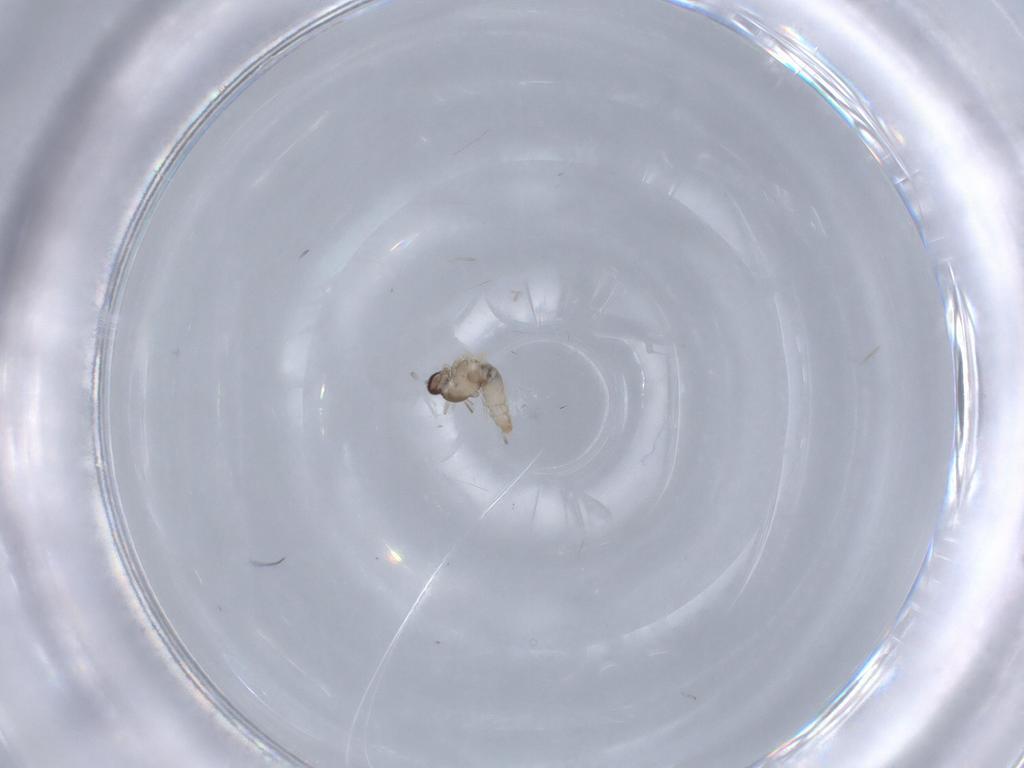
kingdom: Animalia
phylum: Arthropoda
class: Insecta
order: Diptera
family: Cecidomyiidae
